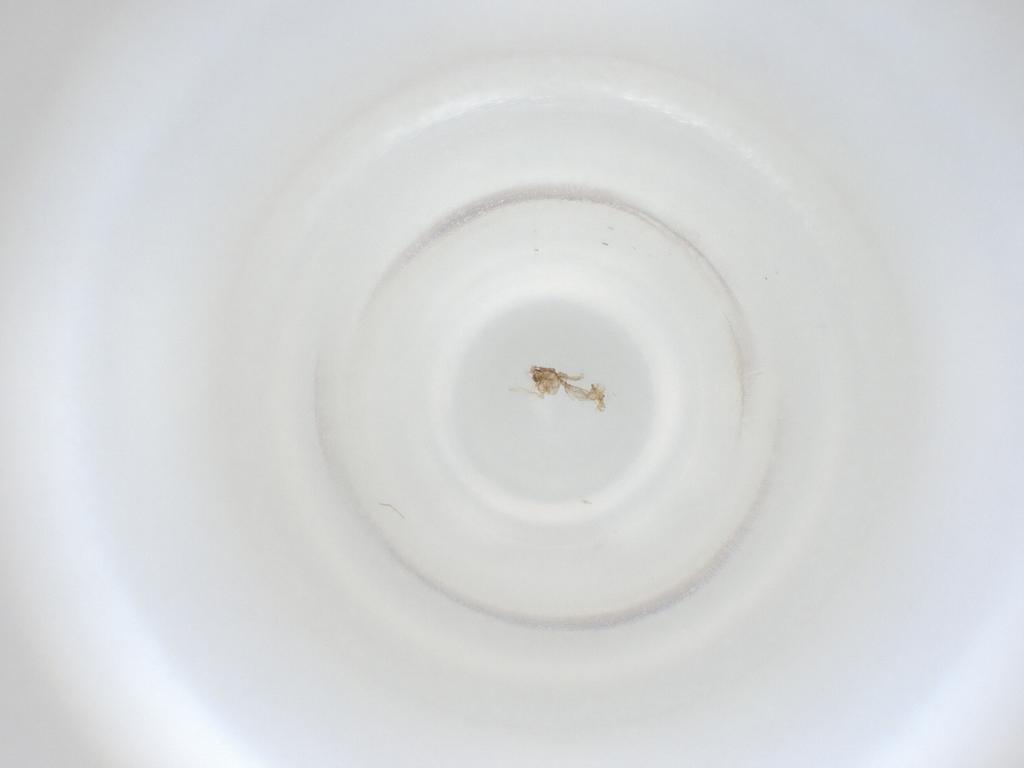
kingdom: Animalia
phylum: Arthropoda
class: Insecta
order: Diptera
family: Cecidomyiidae
